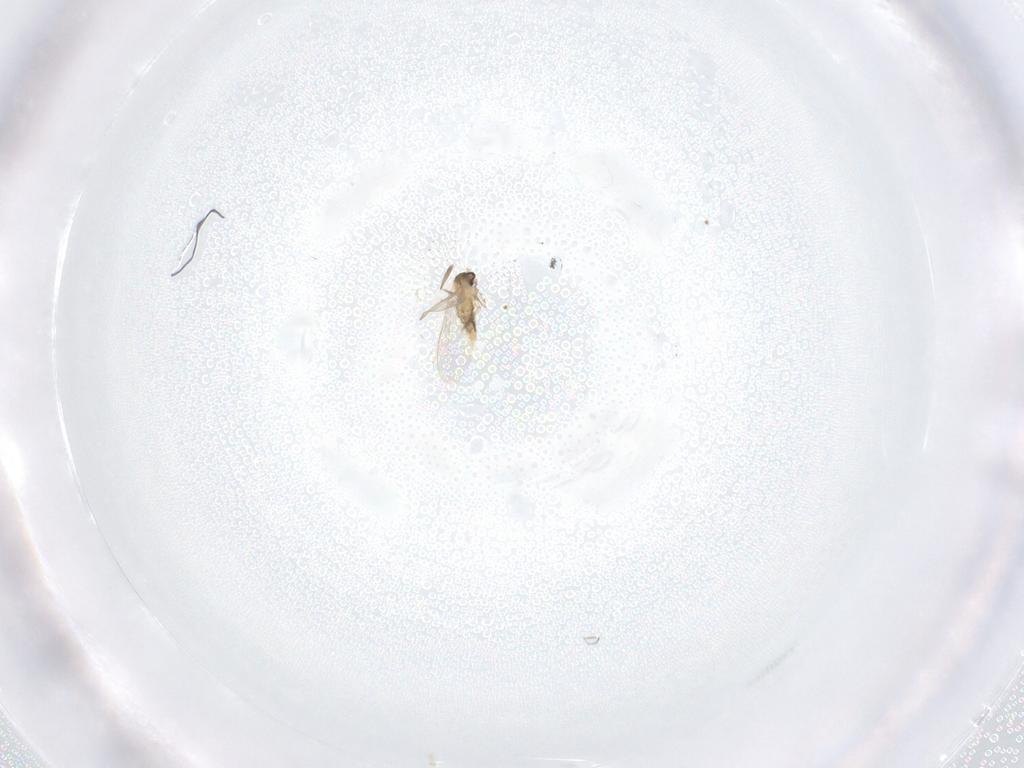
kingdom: Animalia
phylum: Arthropoda
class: Insecta
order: Diptera
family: Cecidomyiidae
